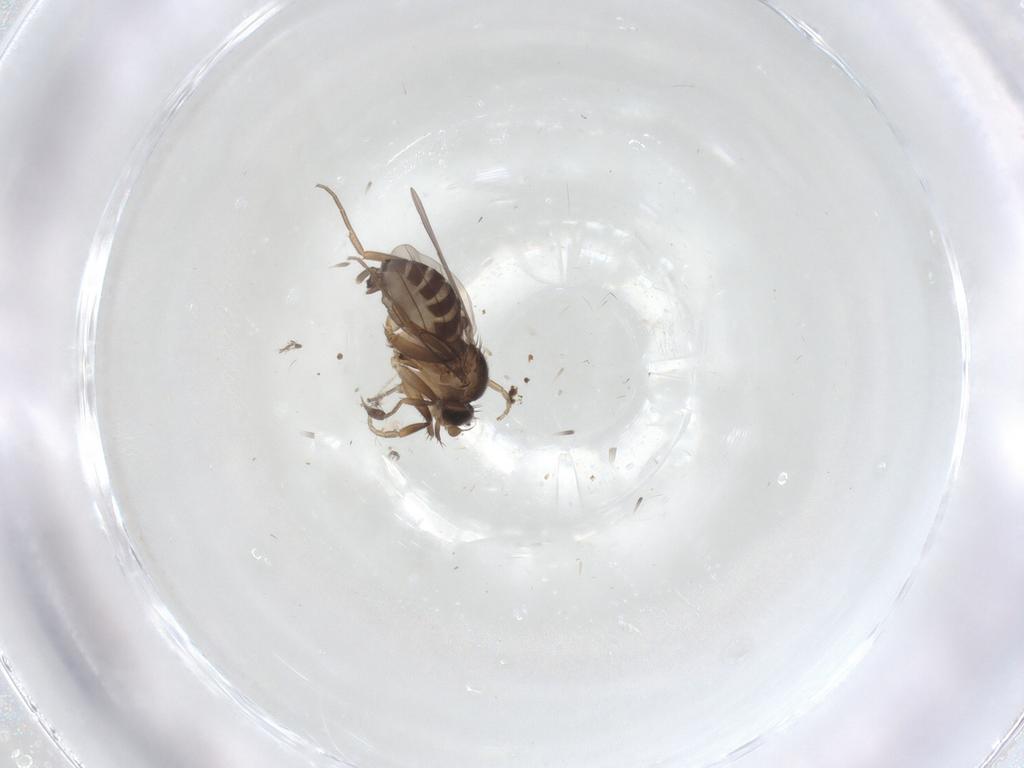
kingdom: Animalia
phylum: Arthropoda
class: Insecta
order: Diptera
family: Phoridae
